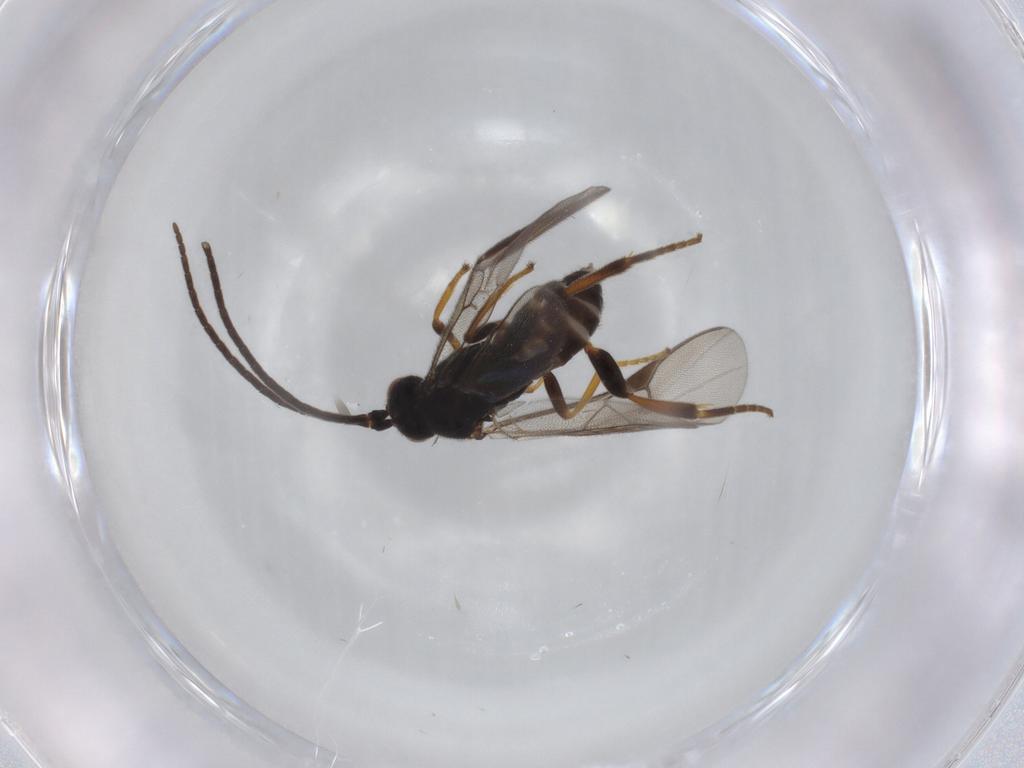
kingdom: Animalia
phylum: Arthropoda
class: Insecta
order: Hymenoptera
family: Braconidae
